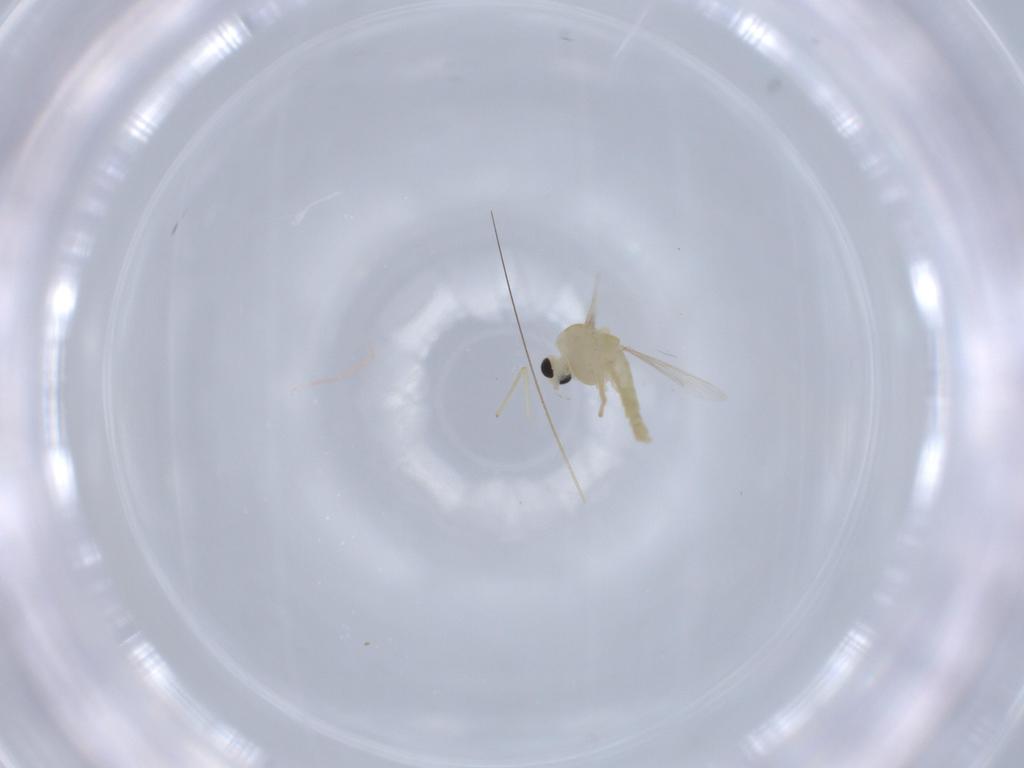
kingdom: Animalia
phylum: Arthropoda
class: Insecta
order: Diptera
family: Chironomidae
